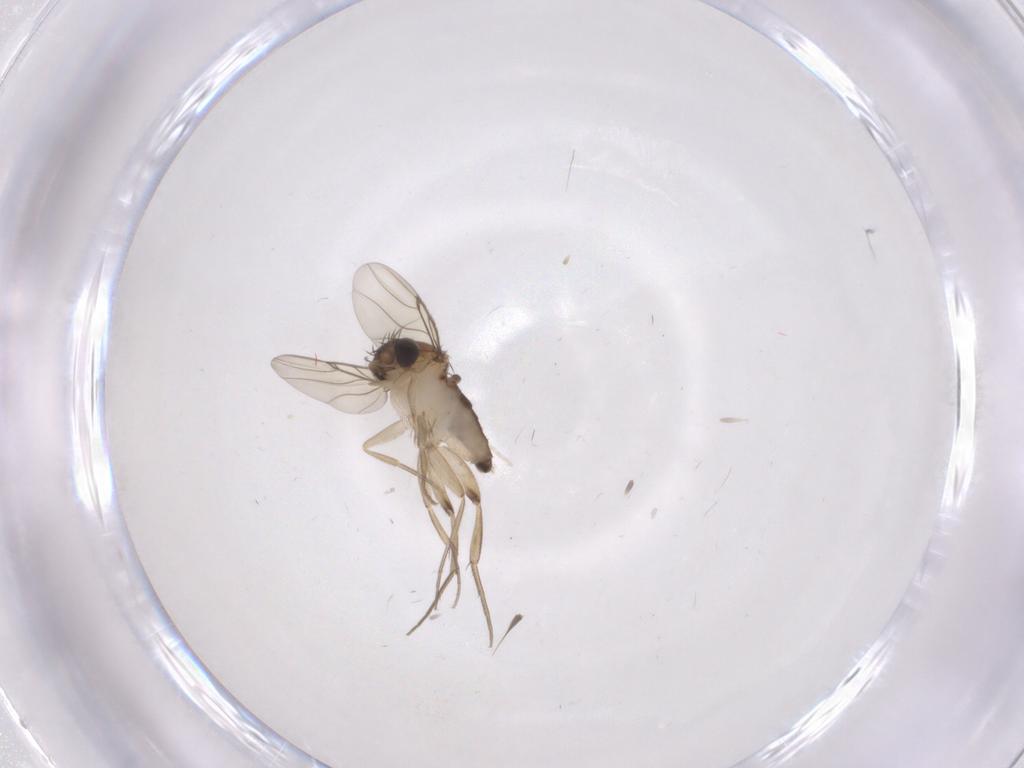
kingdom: Animalia
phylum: Arthropoda
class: Insecta
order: Diptera
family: Phoridae
